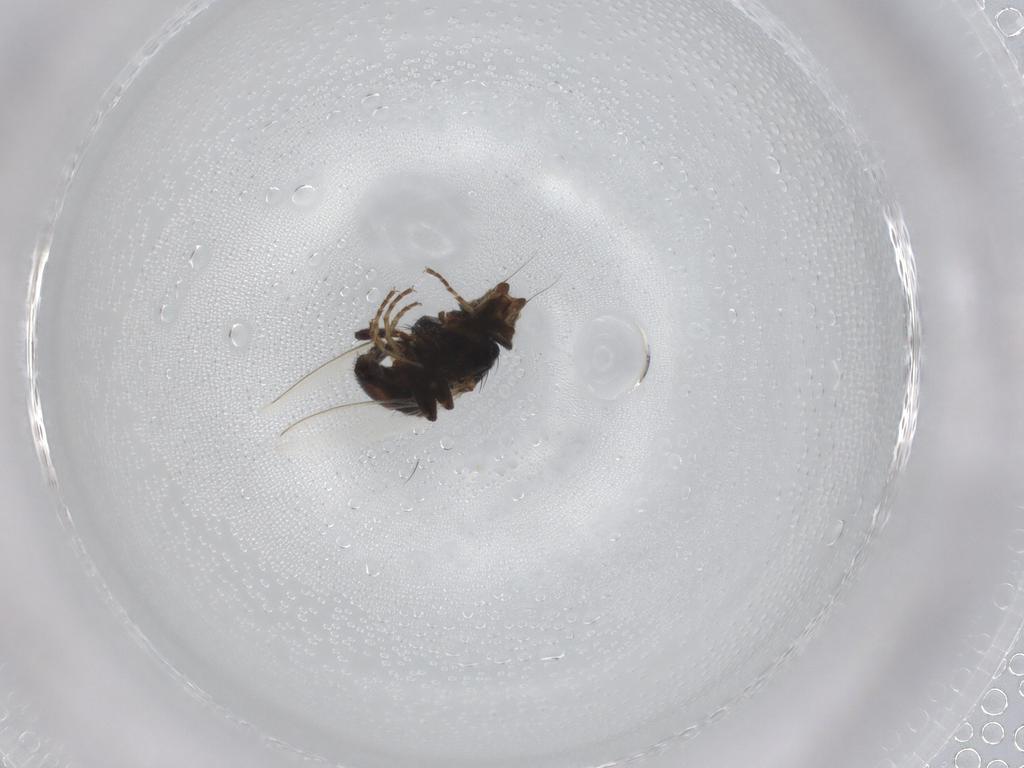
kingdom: Animalia
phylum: Arthropoda
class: Insecta
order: Diptera
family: Milichiidae
